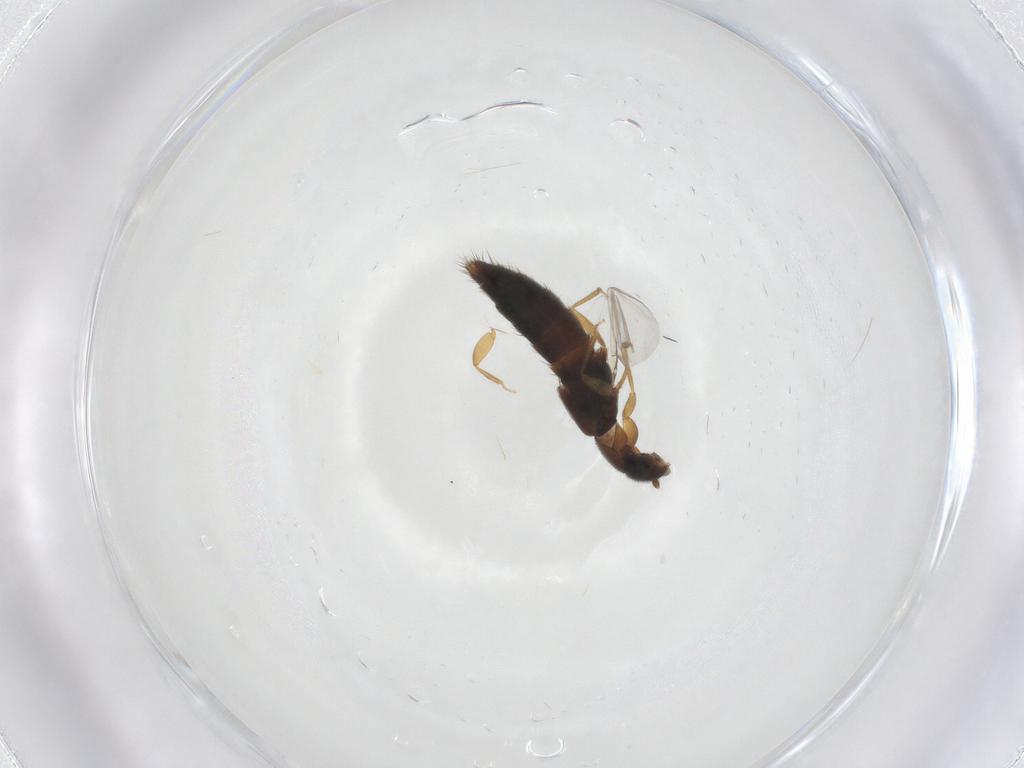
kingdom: Animalia
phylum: Arthropoda
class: Insecta
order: Coleoptera
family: Staphylinidae
